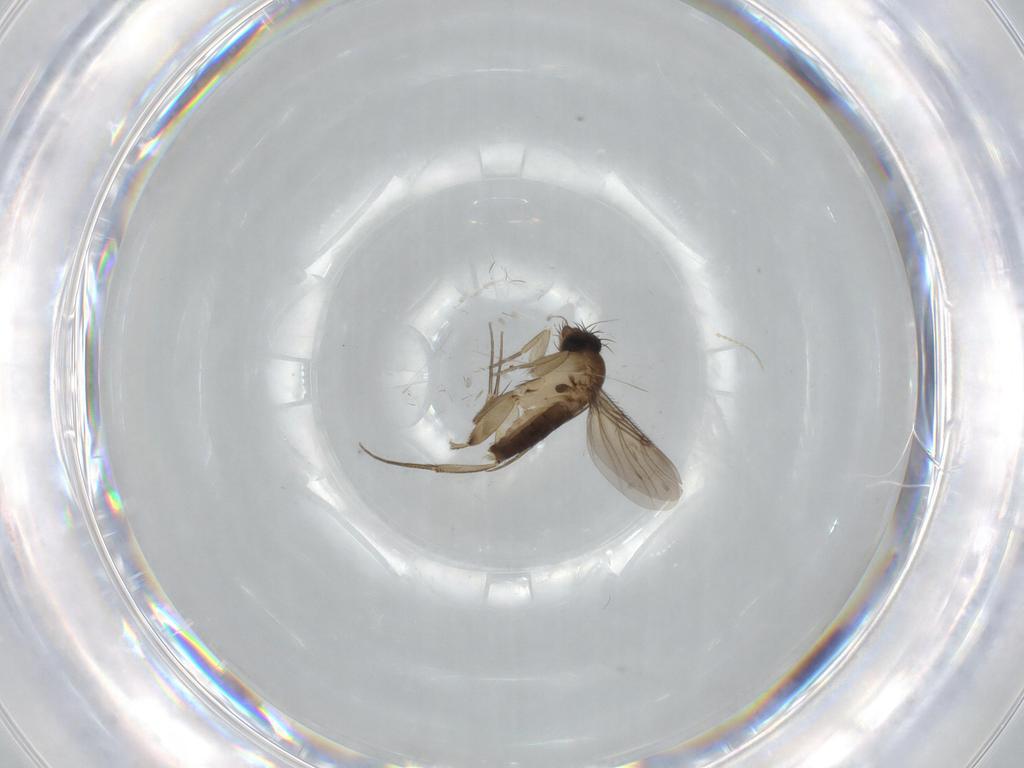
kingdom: Animalia
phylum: Arthropoda
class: Insecta
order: Diptera
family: Phoridae
